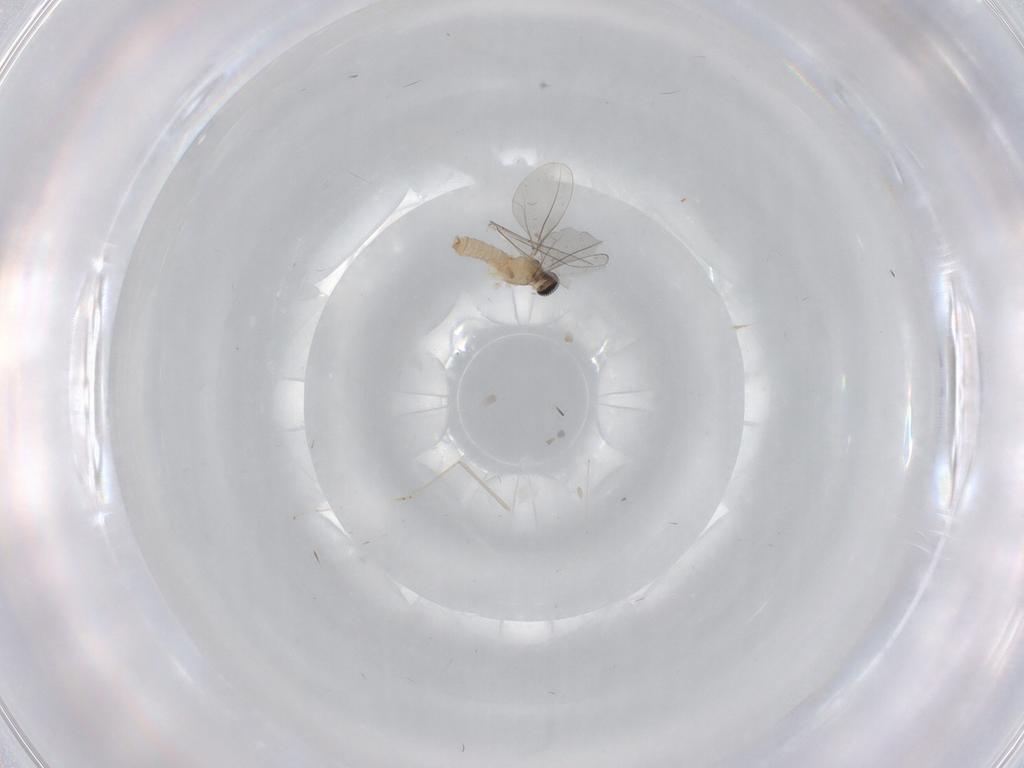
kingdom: Animalia
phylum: Arthropoda
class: Insecta
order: Diptera
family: Cecidomyiidae
